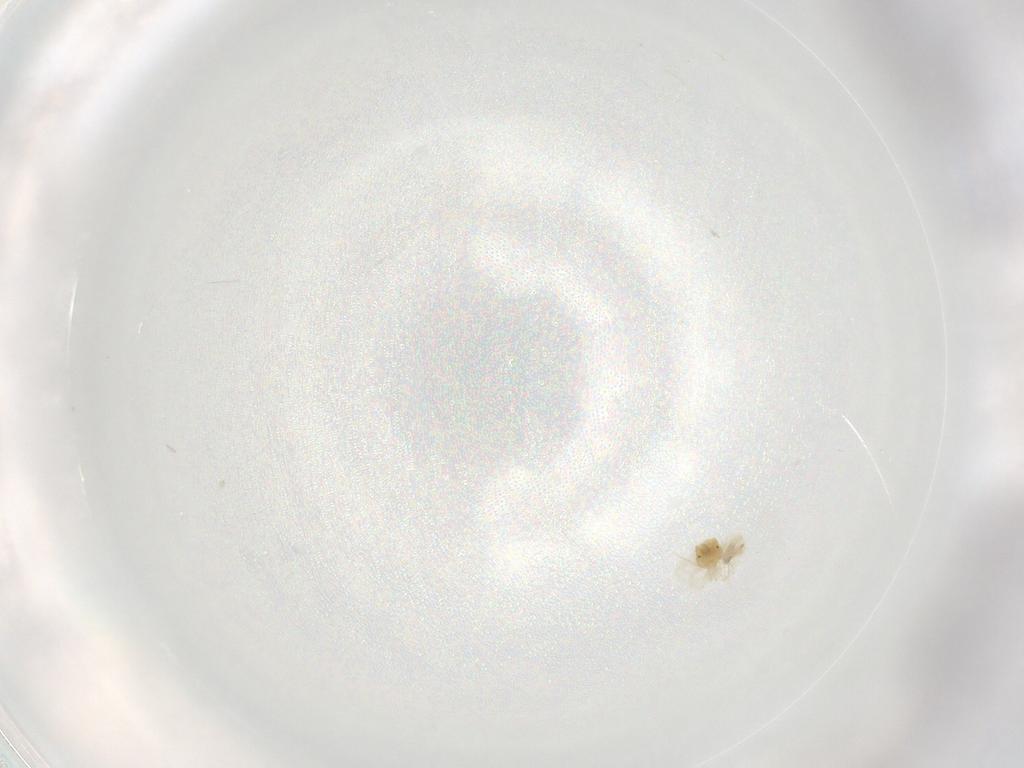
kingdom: Animalia
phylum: Arthropoda
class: Arachnida
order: Trombidiformes
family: Anystidae
